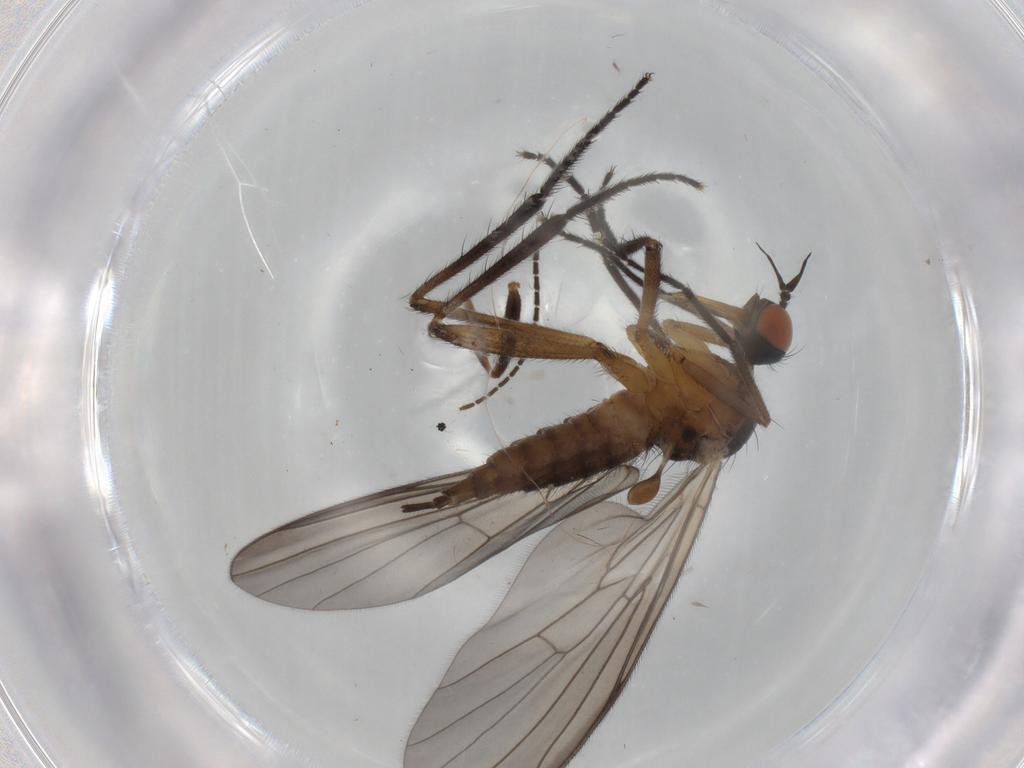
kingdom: Animalia
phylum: Arthropoda
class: Insecta
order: Diptera
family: Empididae
